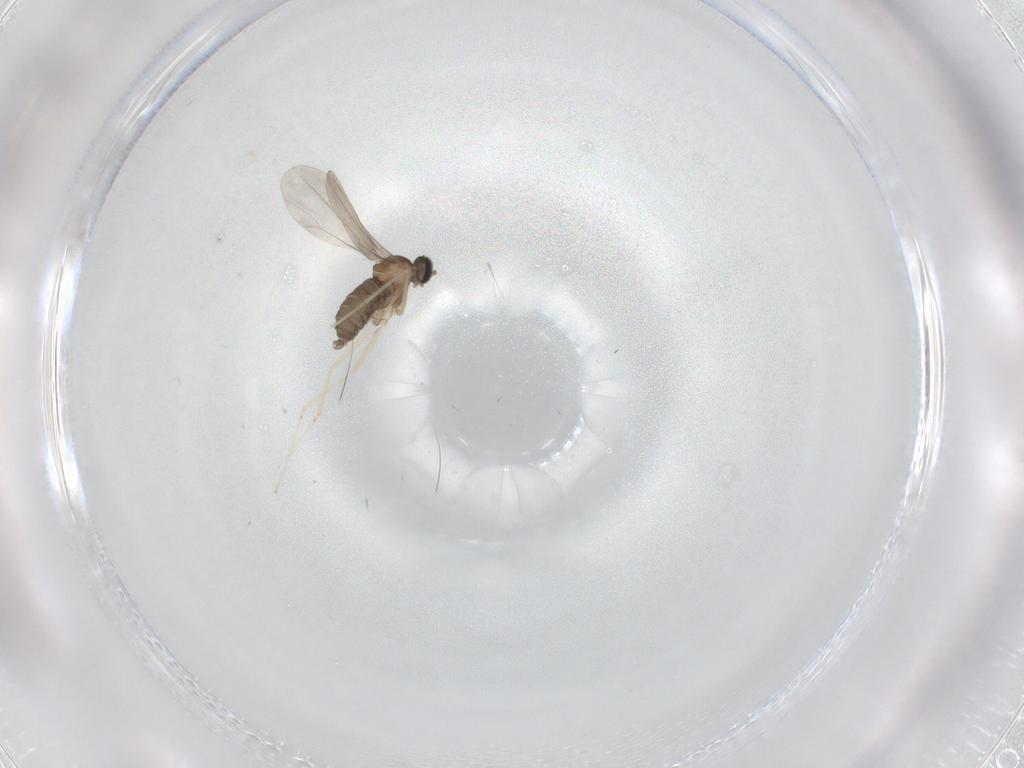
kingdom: Animalia
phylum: Arthropoda
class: Insecta
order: Diptera
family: Cecidomyiidae
